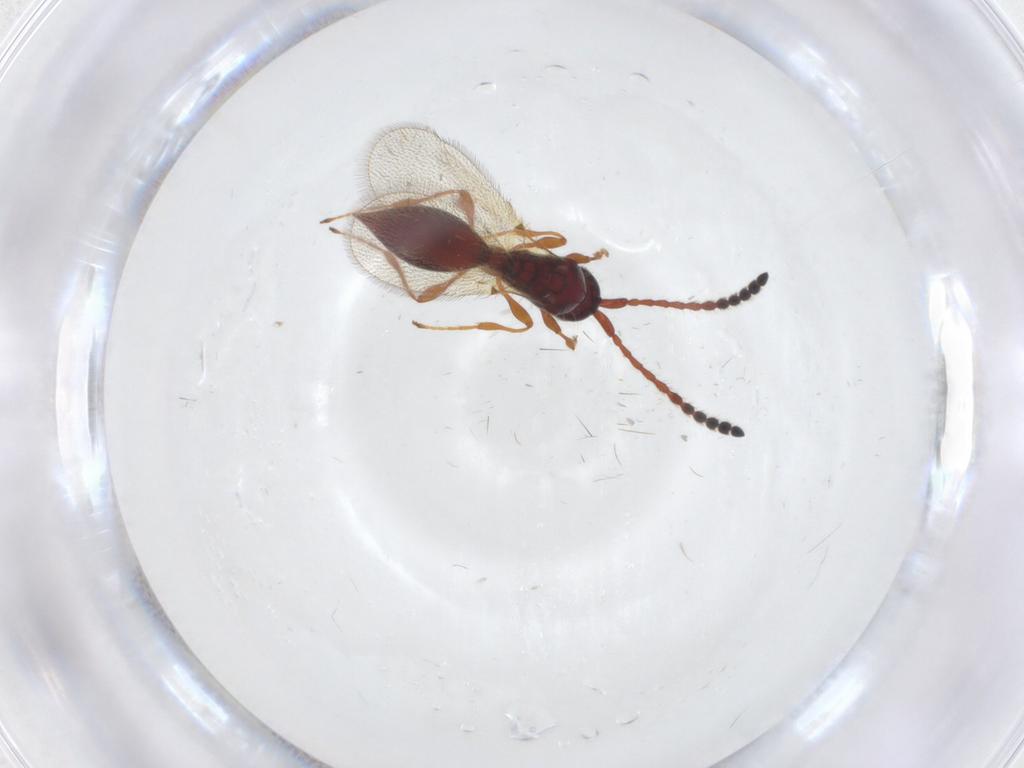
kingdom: Animalia
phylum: Arthropoda
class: Insecta
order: Hymenoptera
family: Diapriidae
